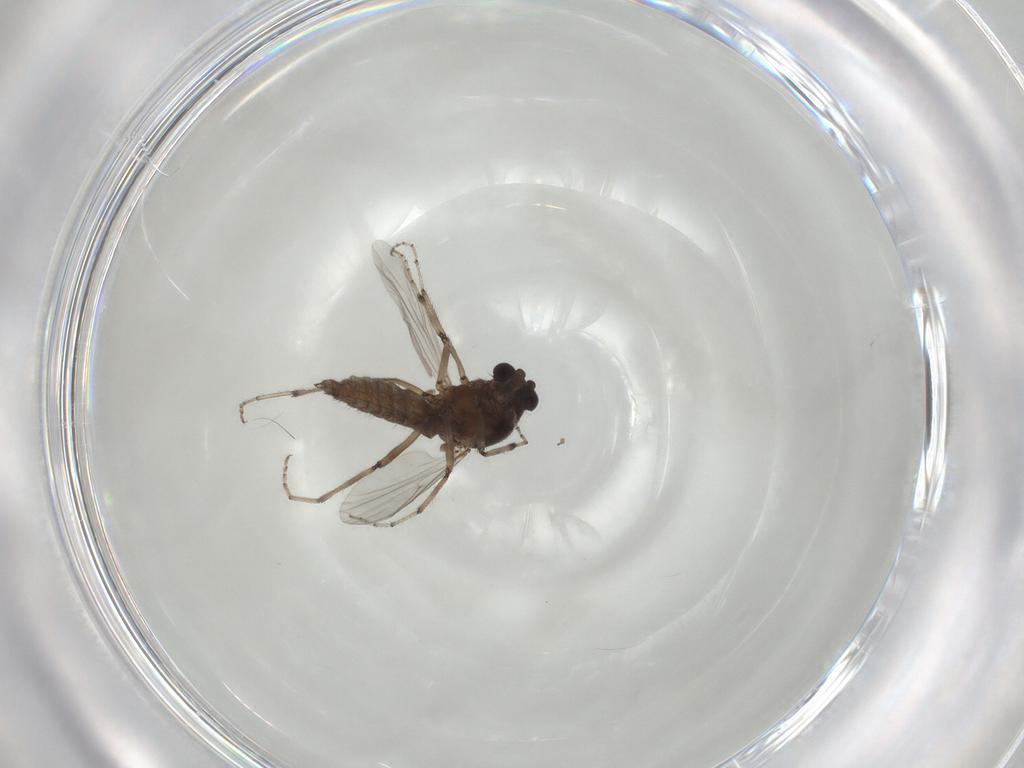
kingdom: Animalia
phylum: Arthropoda
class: Insecta
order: Diptera
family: Ceratopogonidae
